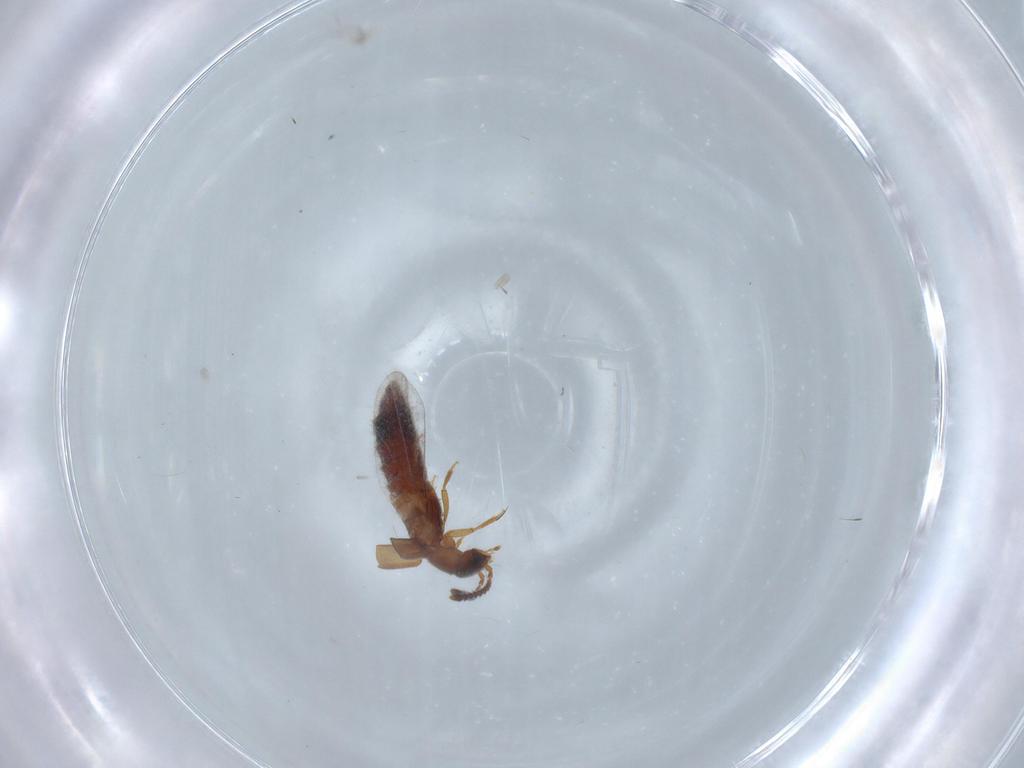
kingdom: Animalia
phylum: Arthropoda
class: Insecta
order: Coleoptera
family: Staphylinidae
